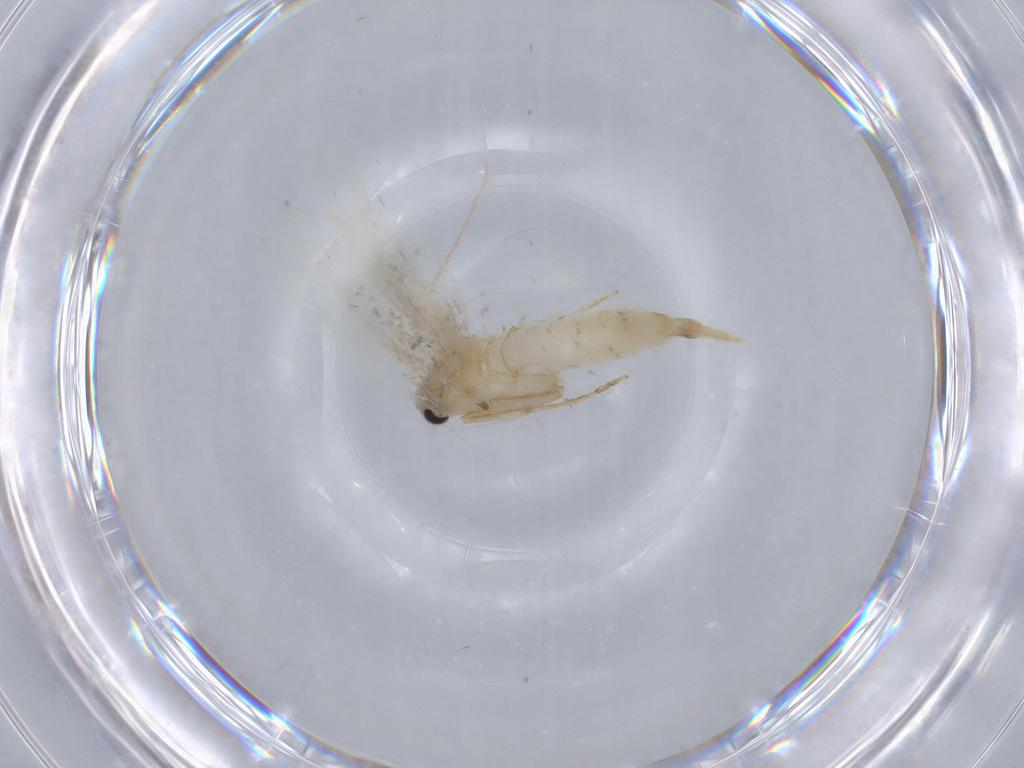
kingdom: Animalia
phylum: Arthropoda
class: Insecta
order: Lepidoptera
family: Tineidae
